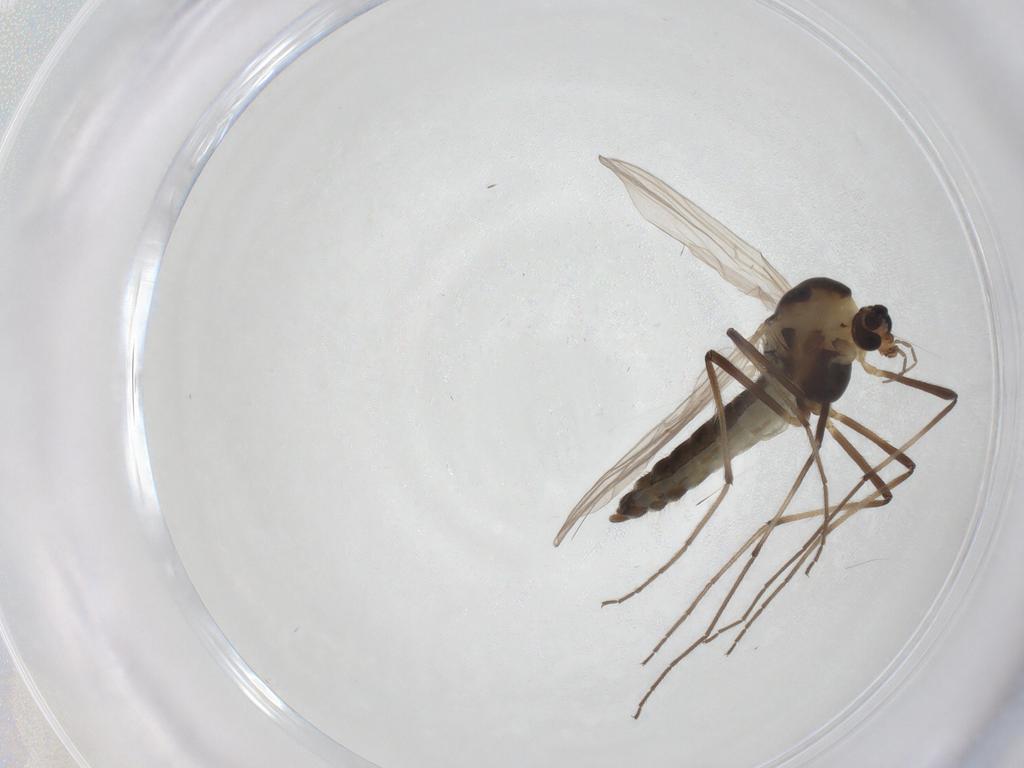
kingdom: Animalia
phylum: Arthropoda
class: Insecta
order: Diptera
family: Chironomidae
